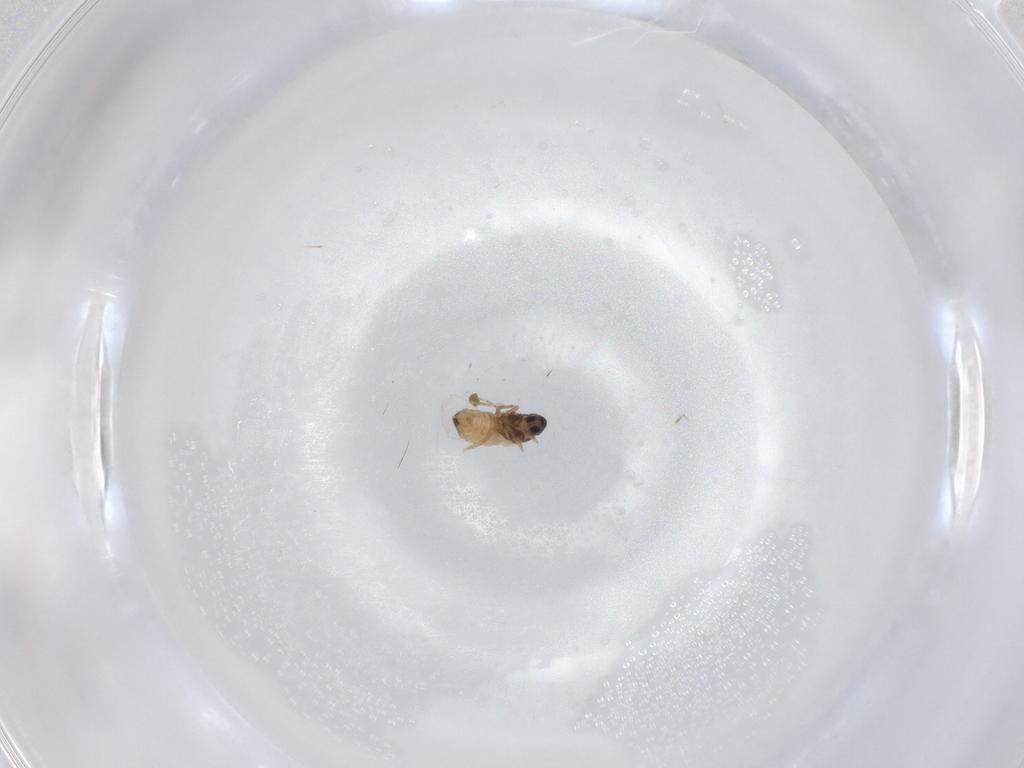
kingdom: Animalia
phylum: Arthropoda
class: Insecta
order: Diptera
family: Cecidomyiidae
